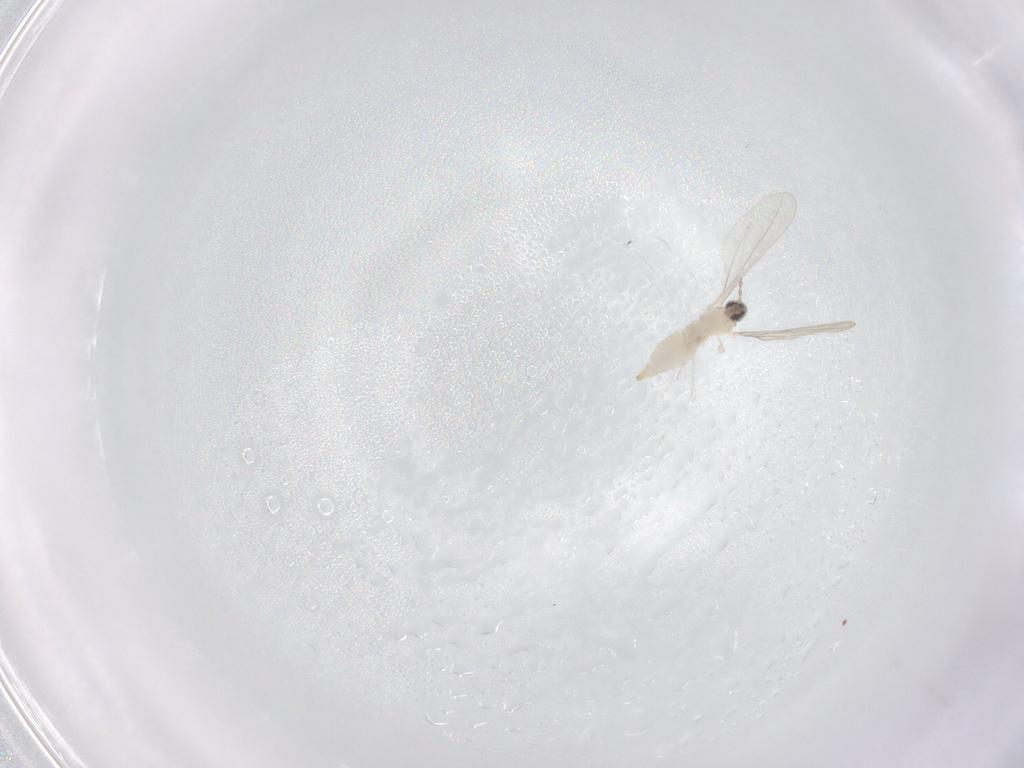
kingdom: Animalia
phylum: Arthropoda
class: Insecta
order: Diptera
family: Cecidomyiidae
